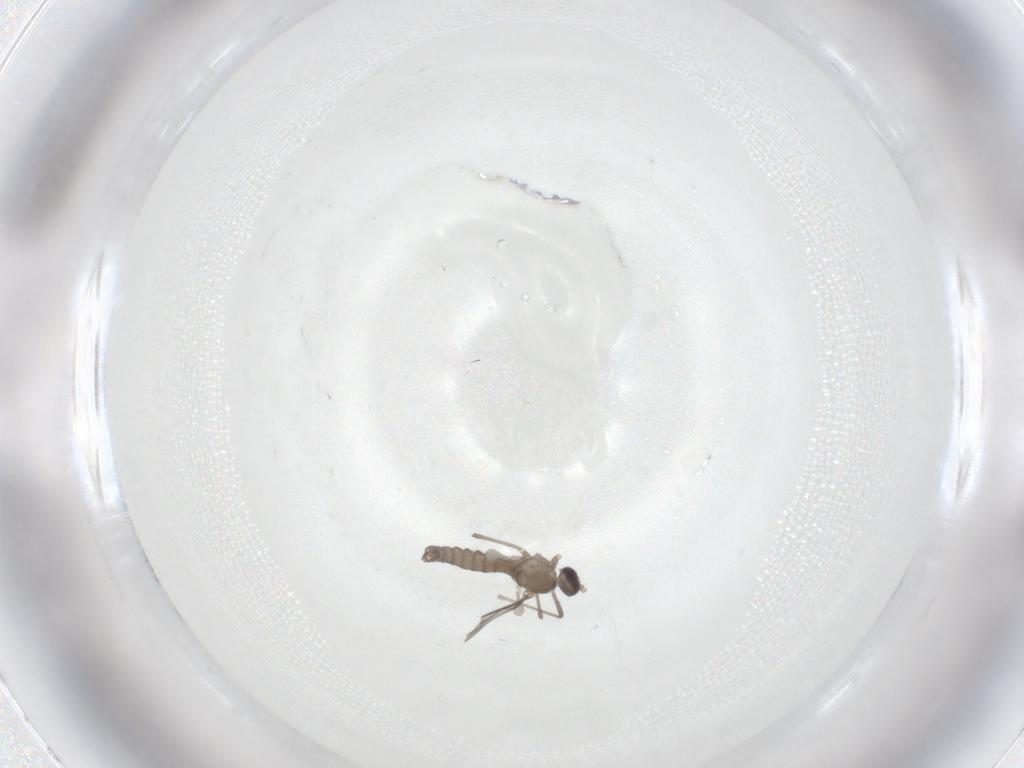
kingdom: Animalia
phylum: Arthropoda
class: Insecta
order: Diptera
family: Cecidomyiidae
